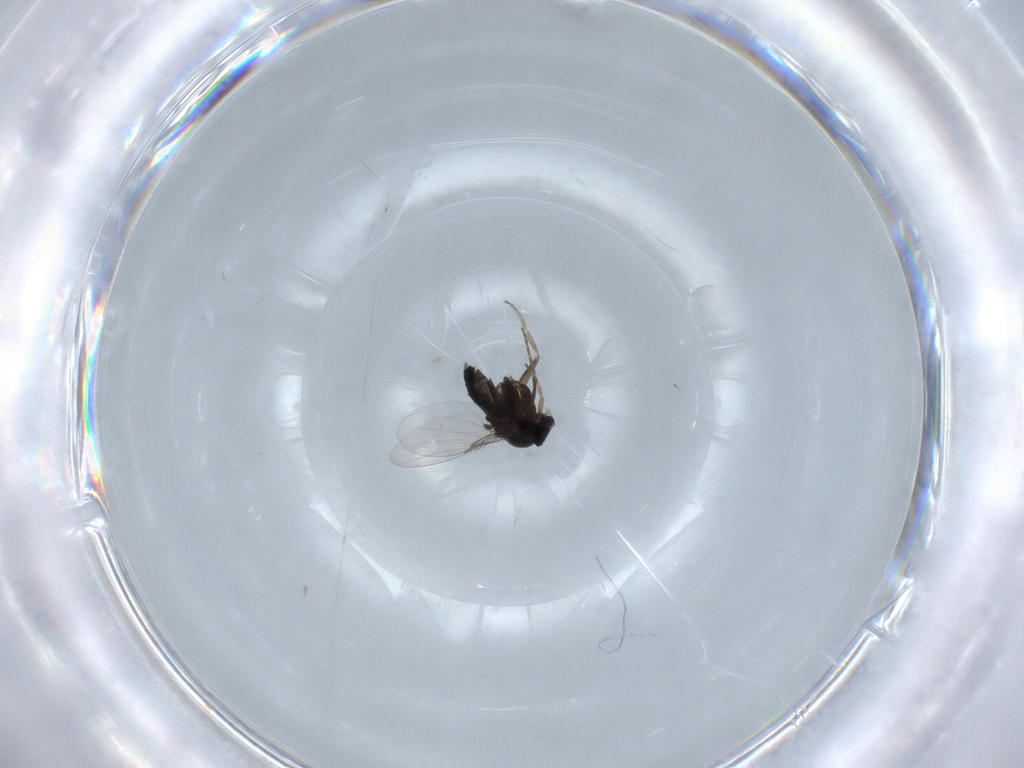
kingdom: Animalia
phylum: Arthropoda
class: Insecta
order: Diptera
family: Phoridae
